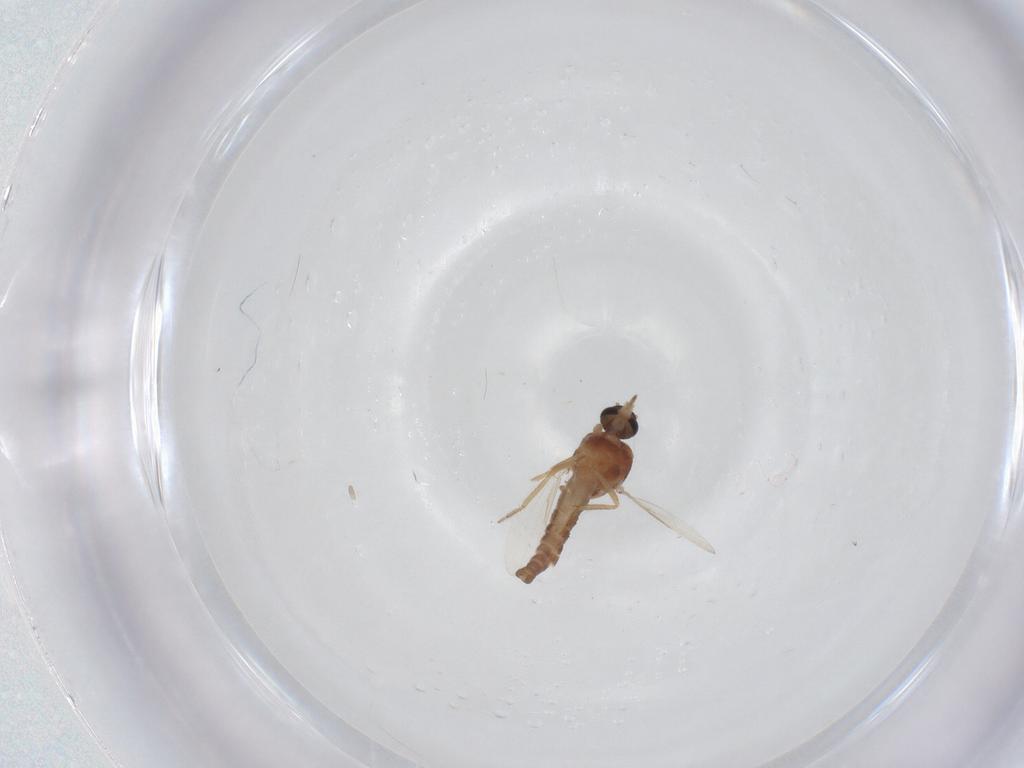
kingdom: Animalia
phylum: Arthropoda
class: Insecta
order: Diptera
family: Ceratopogonidae
